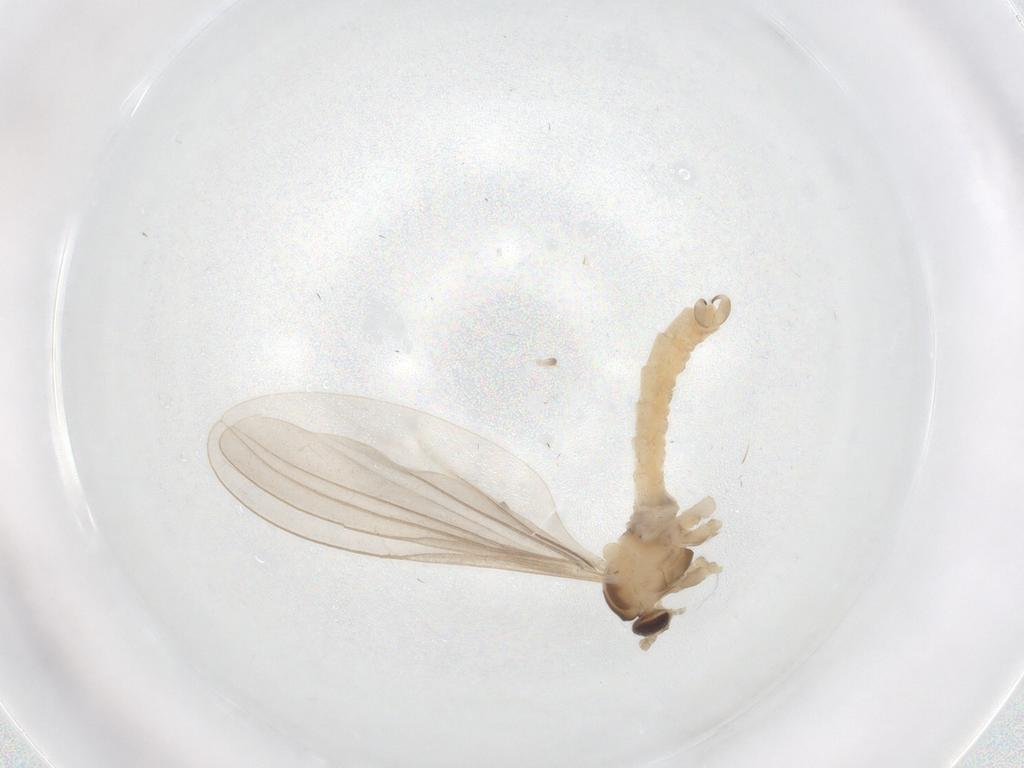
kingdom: Animalia
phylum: Arthropoda
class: Insecta
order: Diptera
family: Cecidomyiidae
